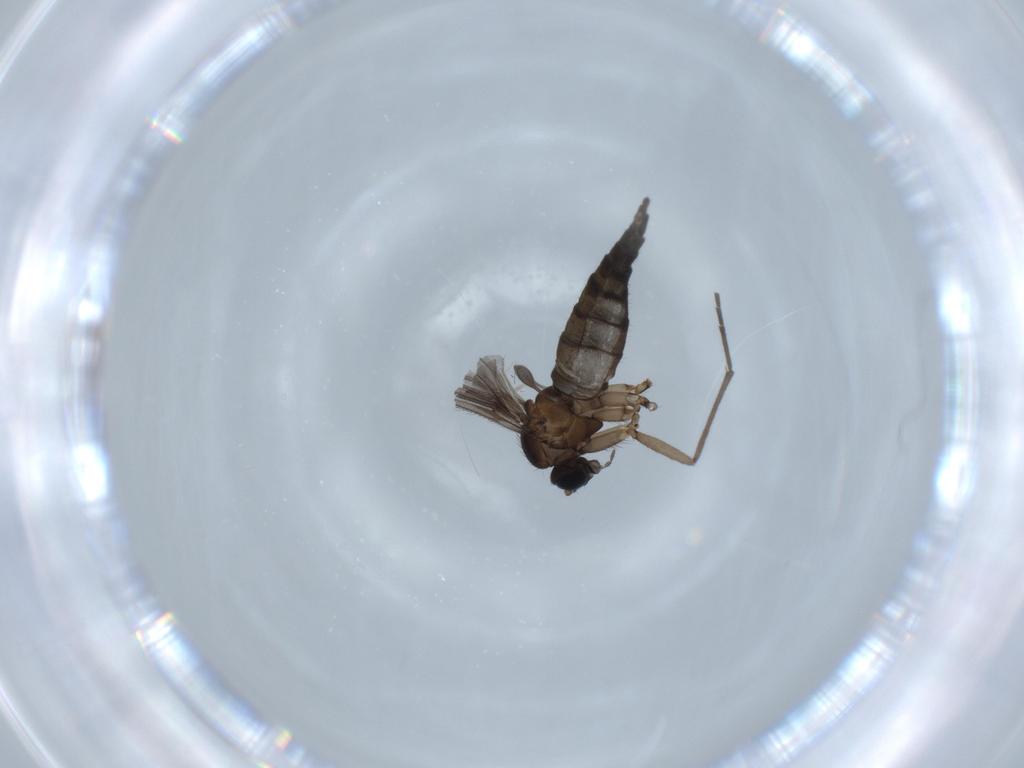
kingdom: Animalia
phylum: Arthropoda
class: Insecta
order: Diptera
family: Sciaridae
